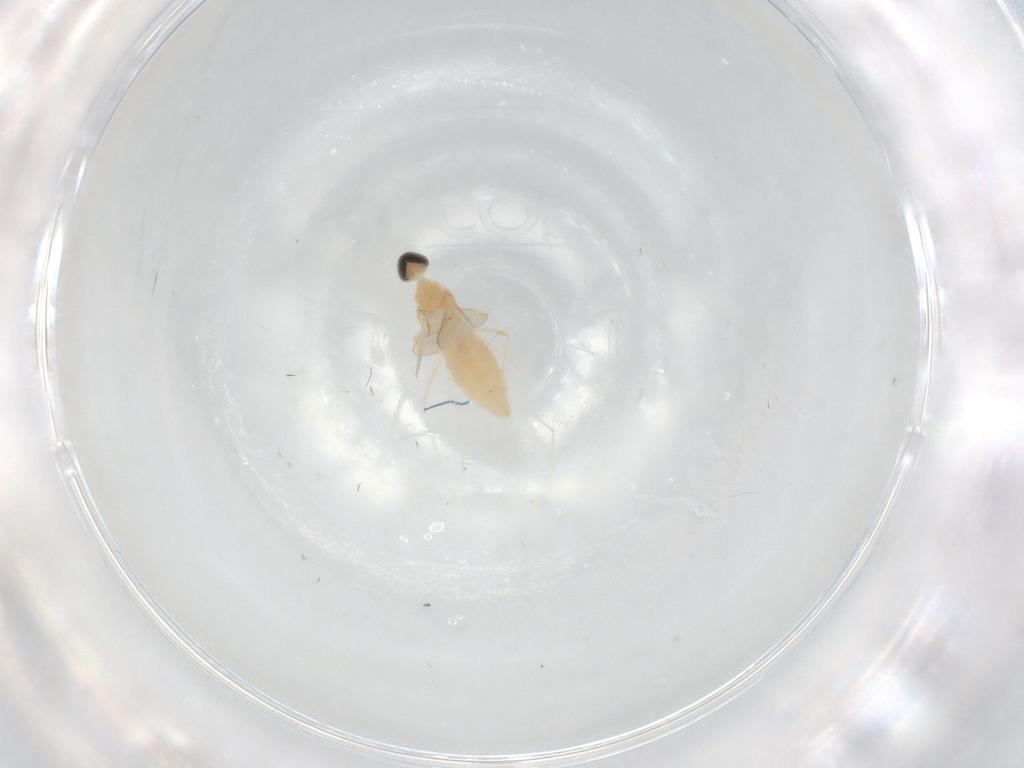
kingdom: Animalia
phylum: Arthropoda
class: Insecta
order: Diptera
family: Cecidomyiidae
